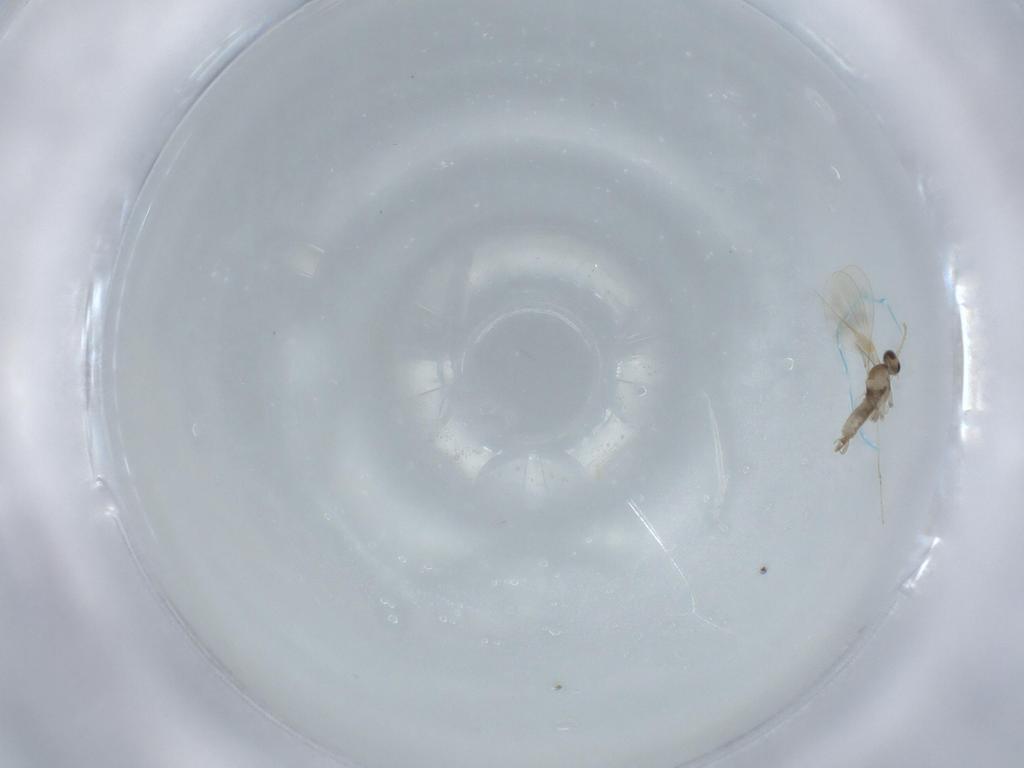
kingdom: Animalia
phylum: Arthropoda
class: Insecta
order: Diptera
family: Cecidomyiidae
